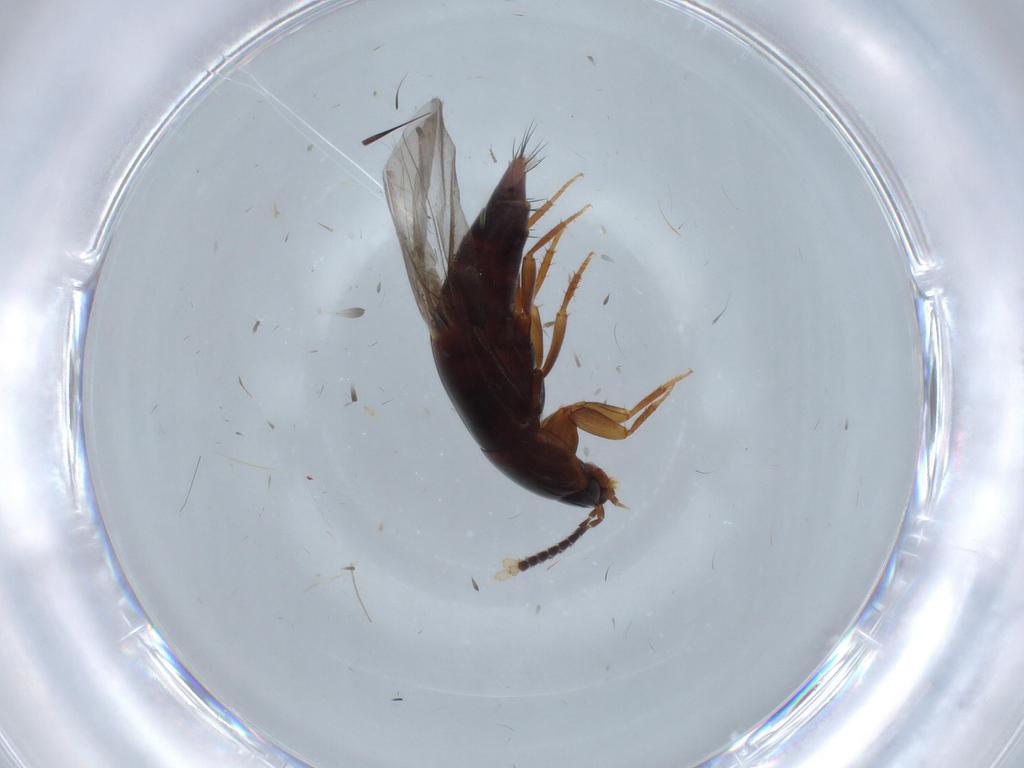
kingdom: Animalia
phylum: Arthropoda
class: Insecta
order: Coleoptera
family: Staphylinidae
